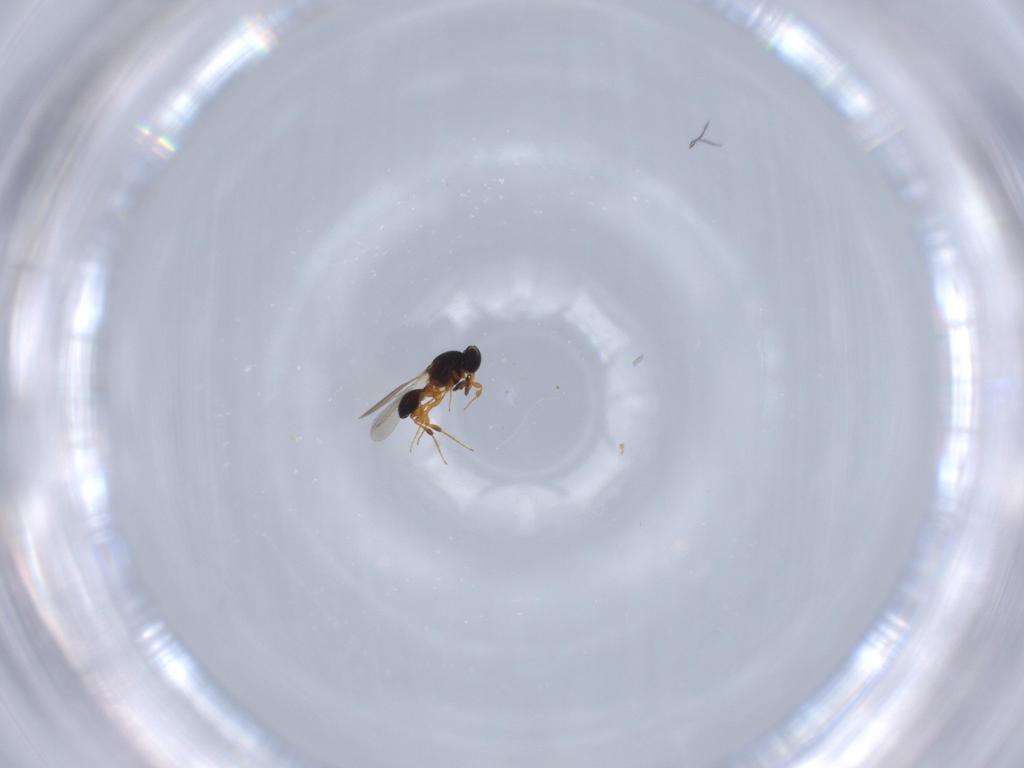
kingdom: Animalia
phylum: Arthropoda
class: Insecta
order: Hymenoptera
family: Platygastridae
